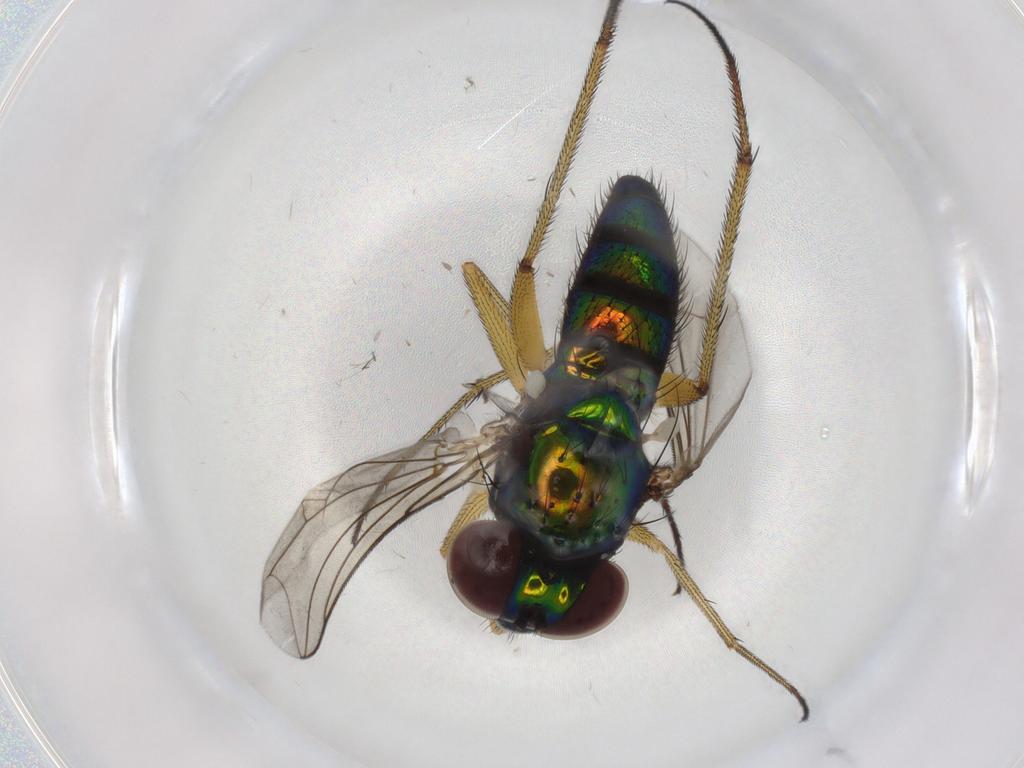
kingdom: Animalia
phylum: Arthropoda
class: Insecta
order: Diptera
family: Dolichopodidae
